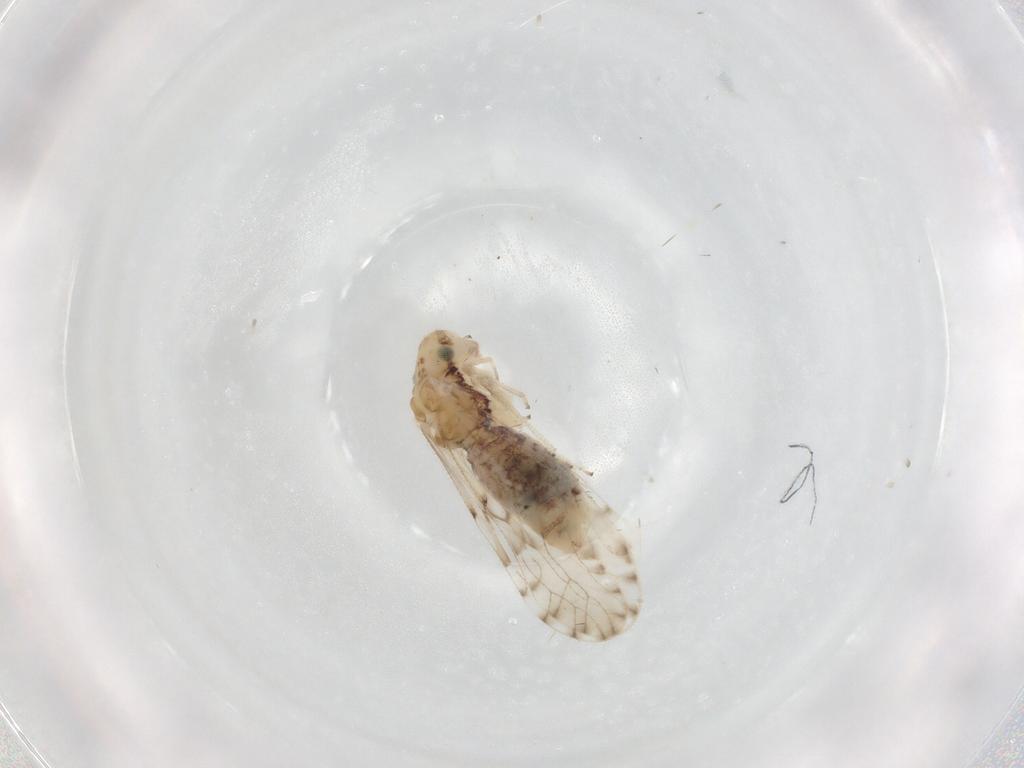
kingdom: Animalia
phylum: Arthropoda
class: Insecta
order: Psocodea
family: Ectopsocidae
